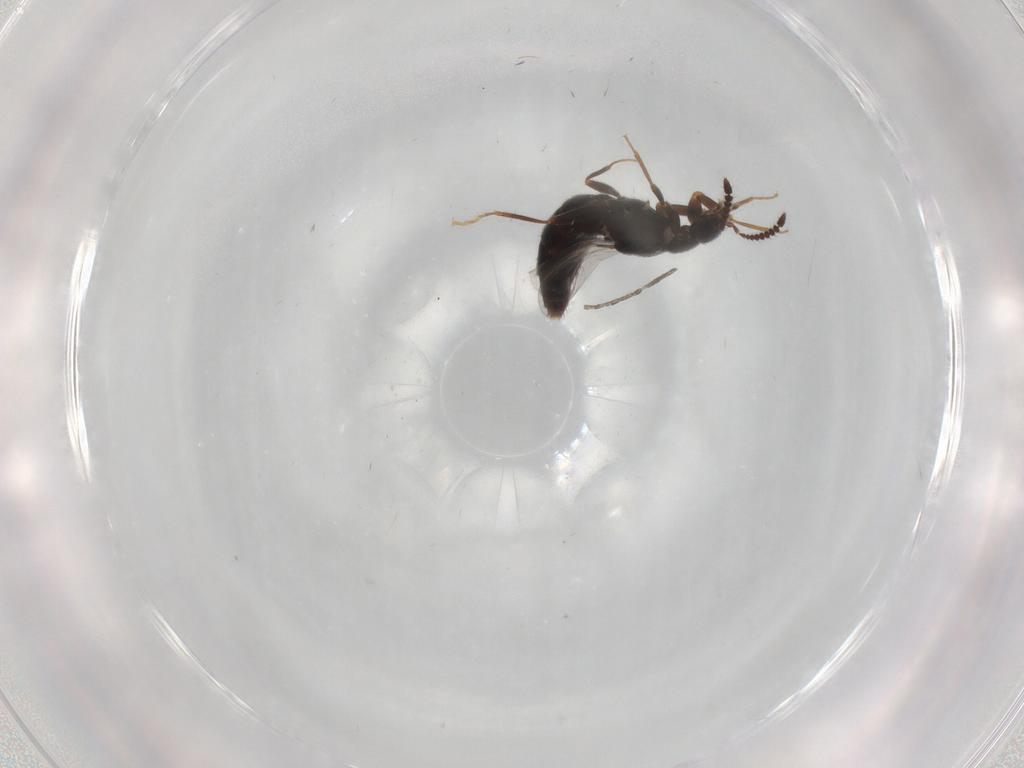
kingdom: Animalia
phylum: Arthropoda
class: Insecta
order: Coleoptera
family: Staphylinidae
